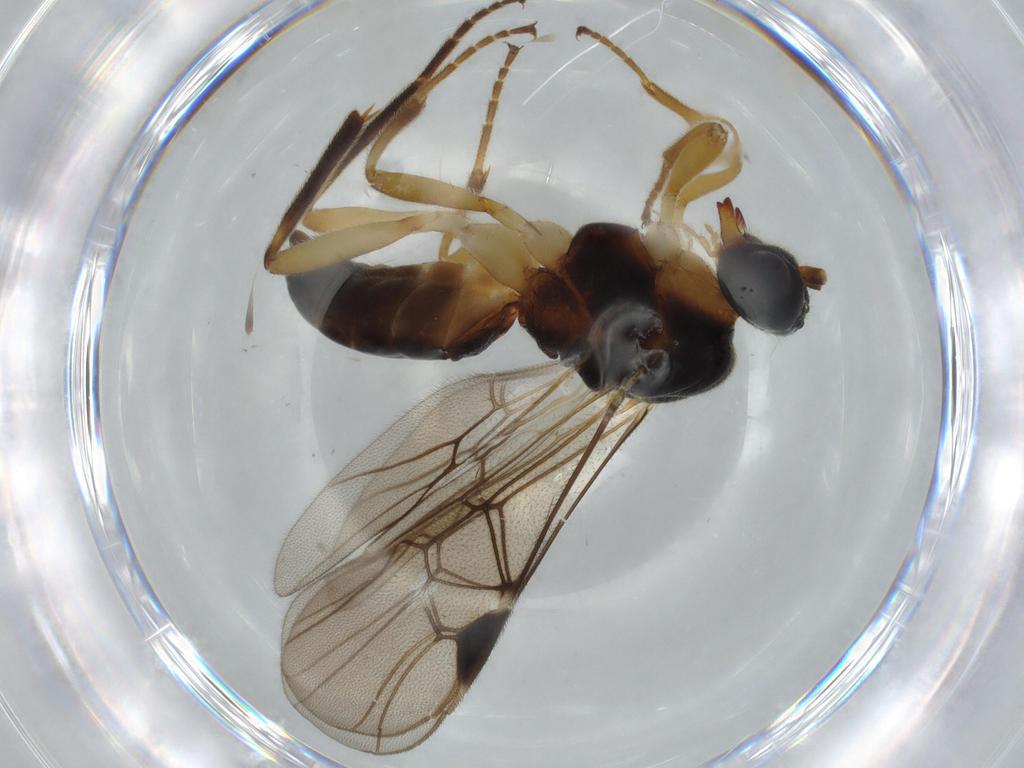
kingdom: Animalia
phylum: Arthropoda
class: Insecta
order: Hymenoptera
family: Braconidae
